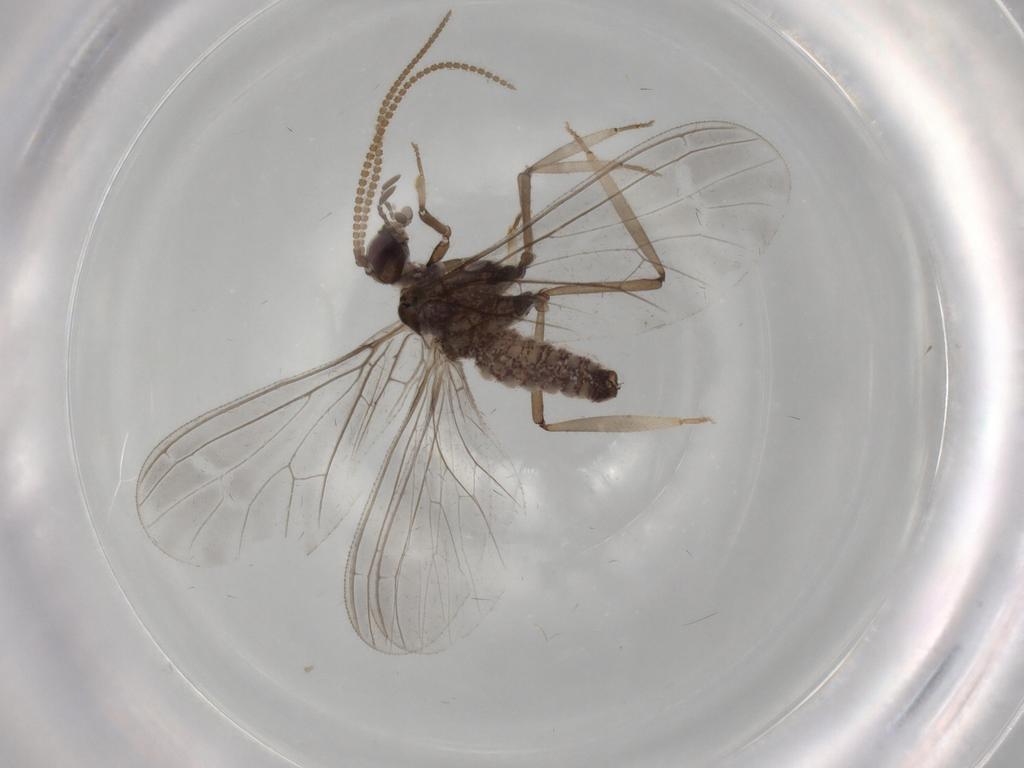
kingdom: Animalia
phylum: Arthropoda
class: Insecta
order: Neuroptera
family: Coniopterygidae
